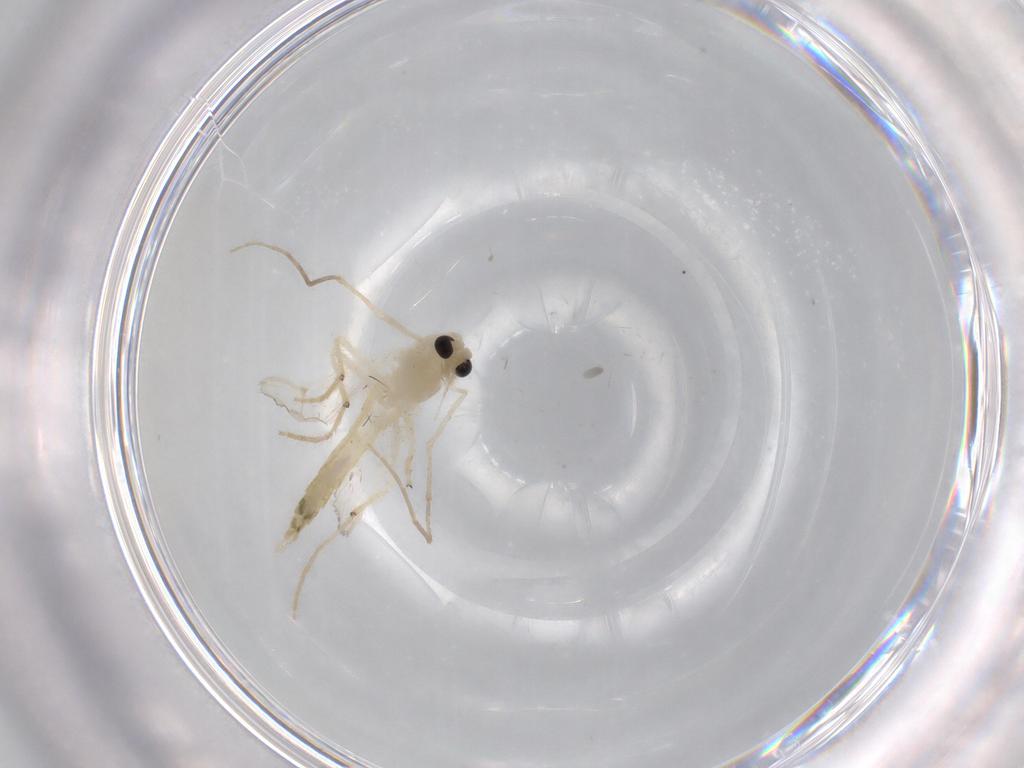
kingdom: Animalia
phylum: Arthropoda
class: Insecta
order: Diptera
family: Chironomidae
